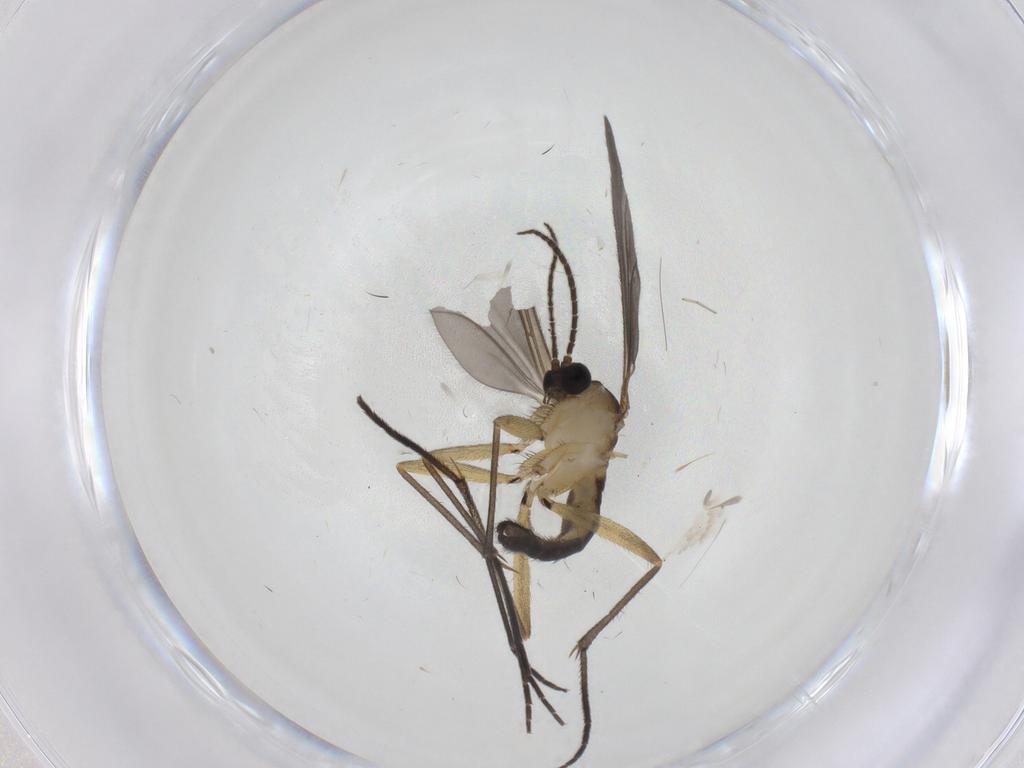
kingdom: Animalia
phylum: Arthropoda
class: Insecta
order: Diptera
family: Sciaridae
